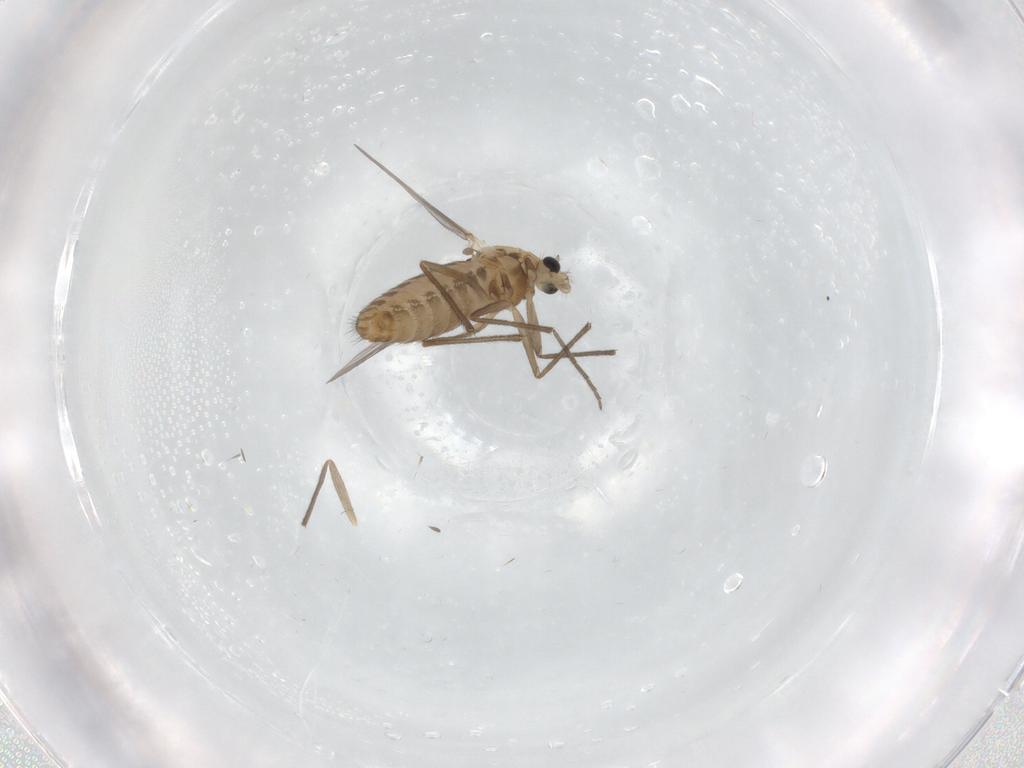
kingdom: Animalia
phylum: Arthropoda
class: Insecta
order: Diptera
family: Chironomidae
